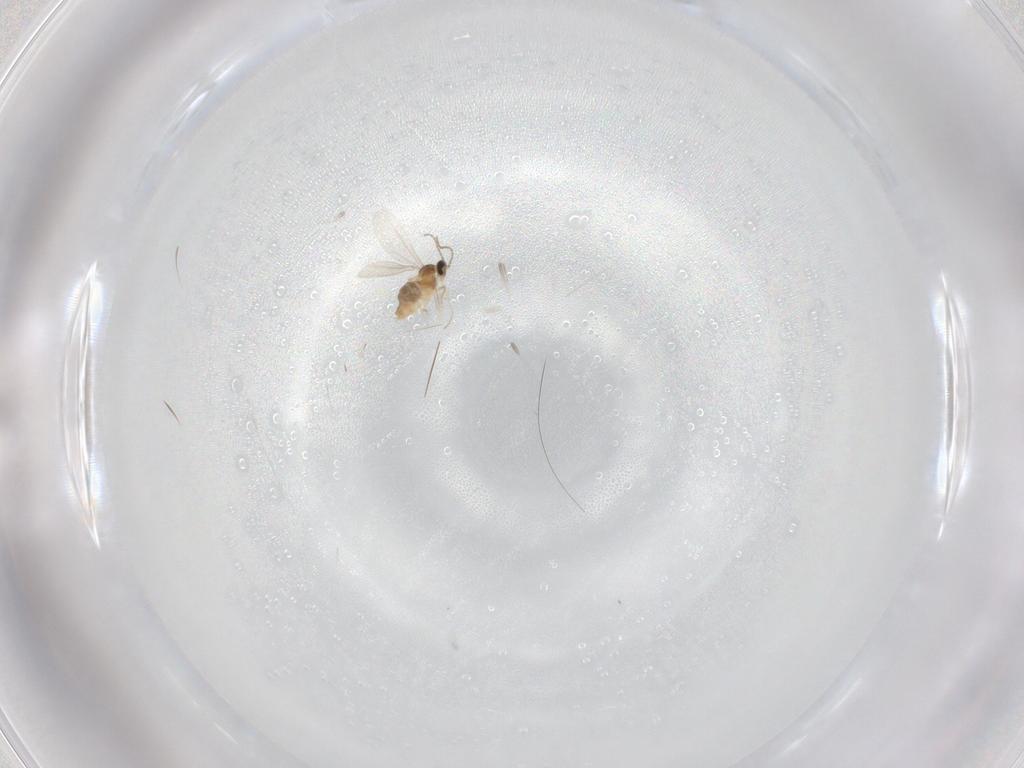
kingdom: Animalia
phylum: Arthropoda
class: Insecta
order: Diptera
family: Cecidomyiidae
